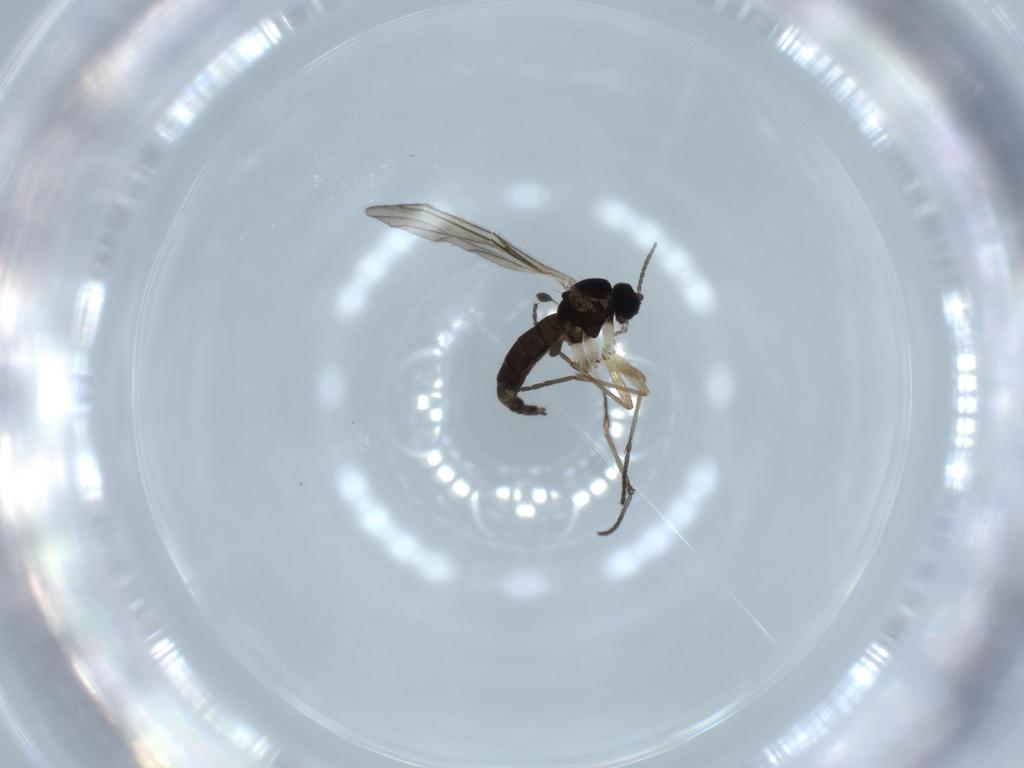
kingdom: Animalia
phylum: Arthropoda
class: Insecta
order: Diptera
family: Sciaridae
